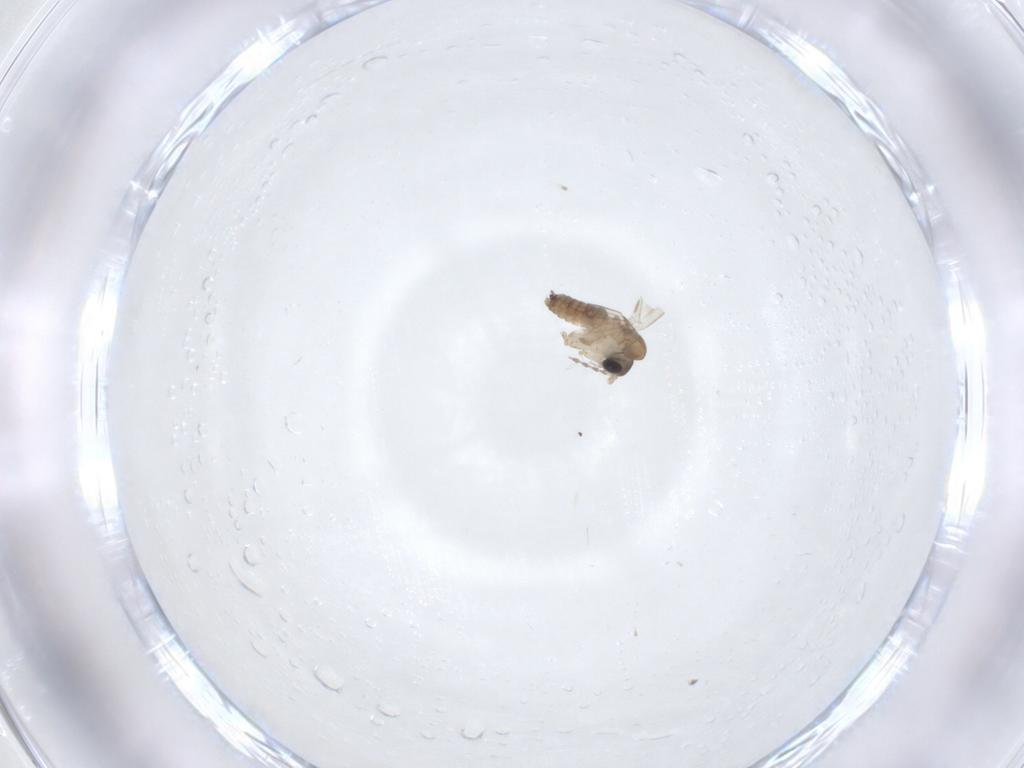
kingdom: Animalia
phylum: Arthropoda
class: Insecta
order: Diptera
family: Psychodidae
